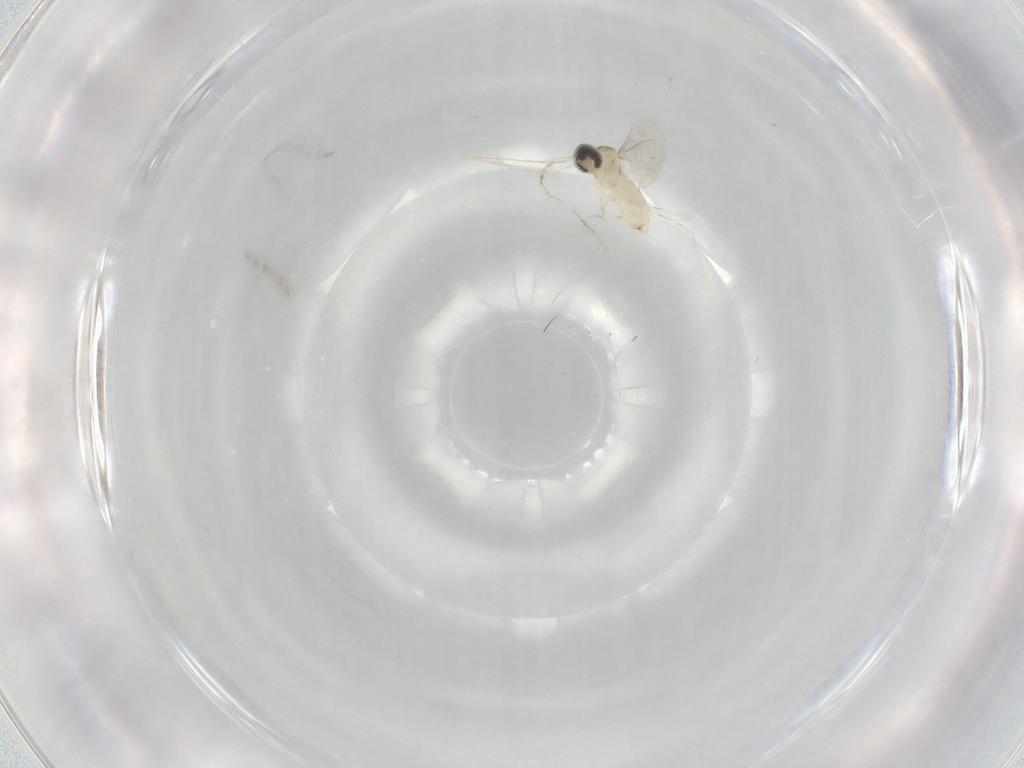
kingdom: Animalia
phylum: Arthropoda
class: Insecta
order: Diptera
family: Cecidomyiidae
